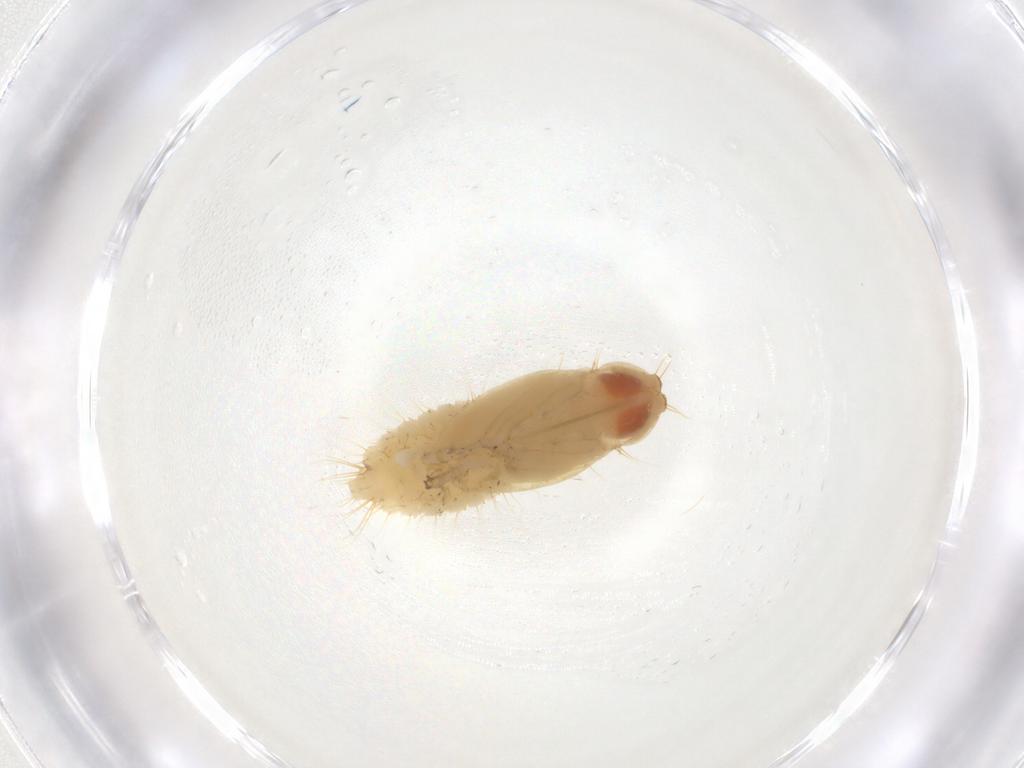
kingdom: Animalia
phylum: Arthropoda
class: Insecta
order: Diptera
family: Empididae
